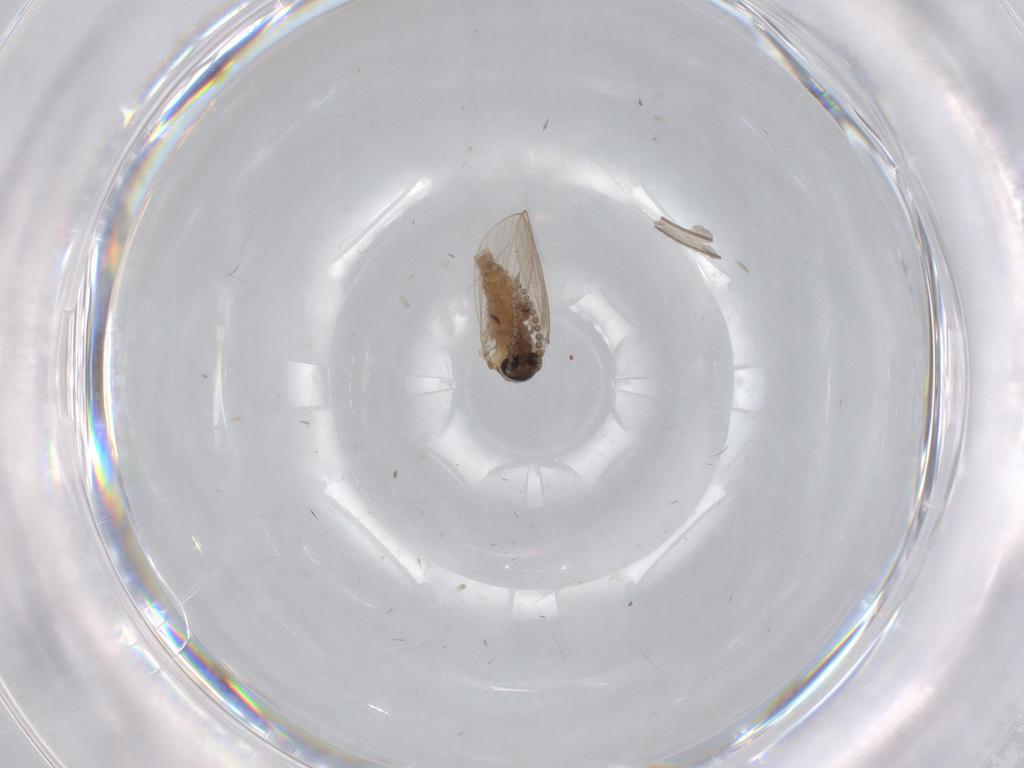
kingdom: Animalia
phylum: Arthropoda
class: Insecta
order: Diptera
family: Psychodidae
